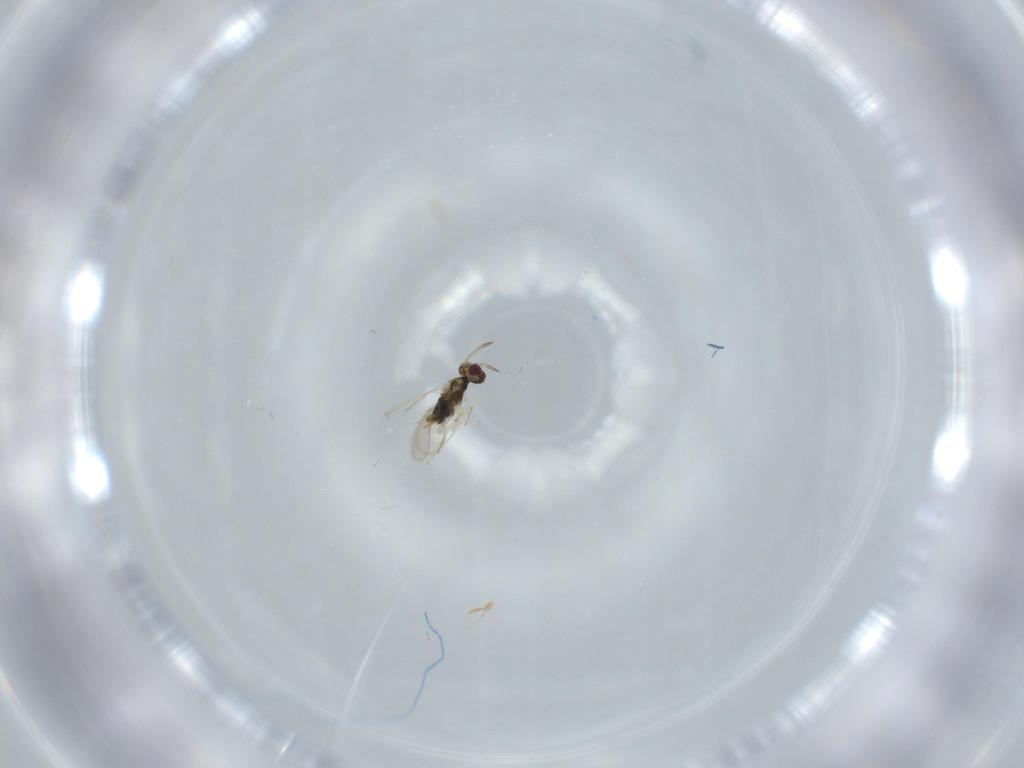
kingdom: Animalia
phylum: Arthropoda
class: Insecta
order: Hymenoptera
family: Aphelinidae
